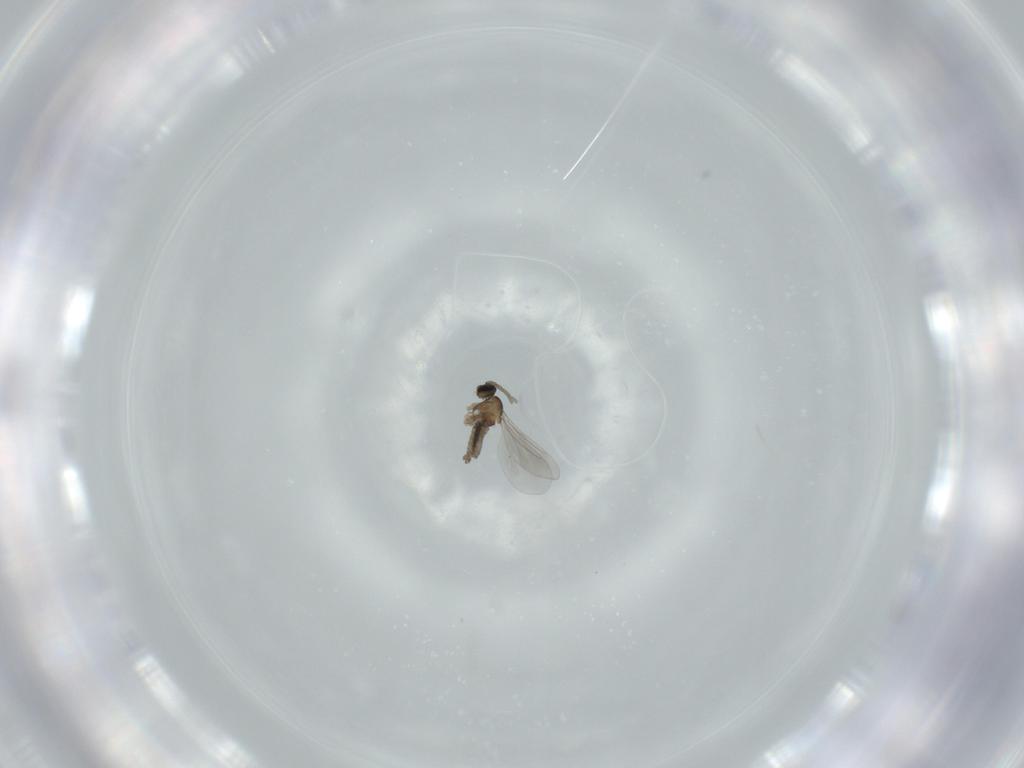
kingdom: Animalia
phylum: Arthropoda
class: Insecta
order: Diptera
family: Cecidomyiidae
